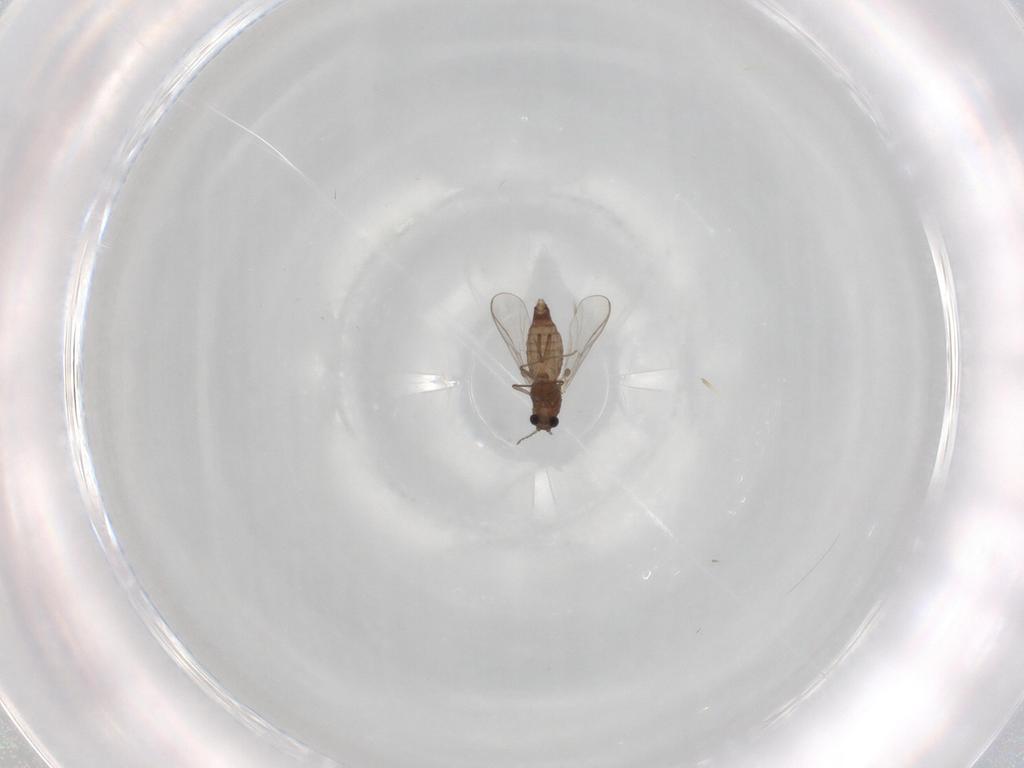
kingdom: Animalia
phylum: Arthropoda
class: Insecta
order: Diptera
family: Chironomidae
